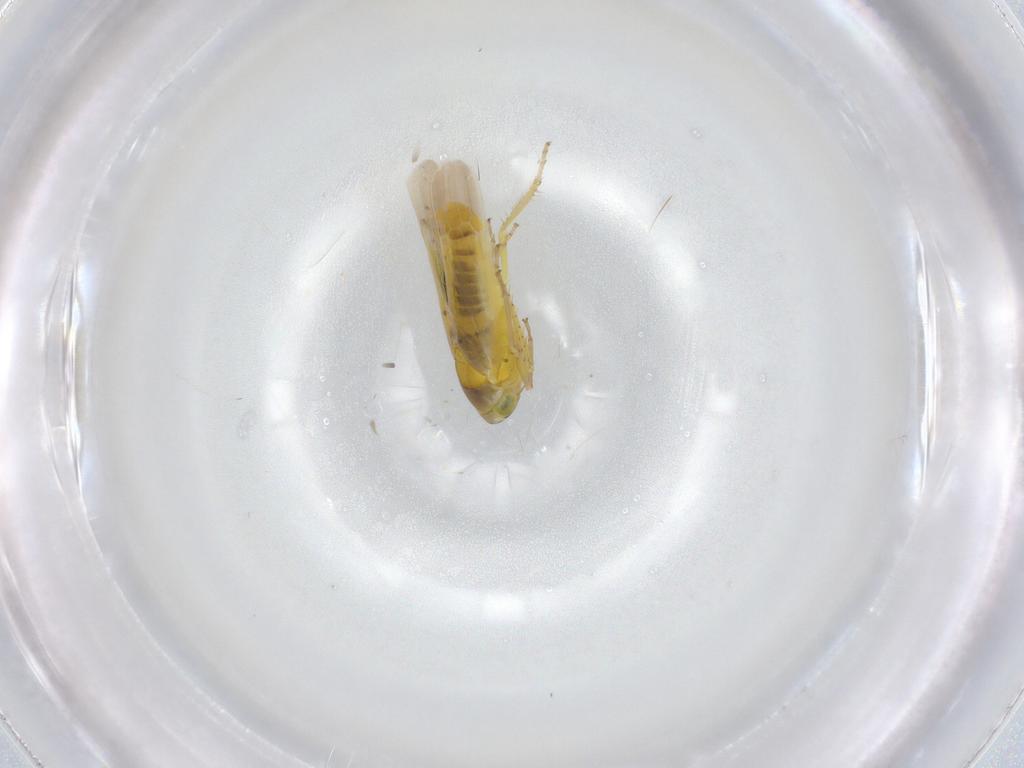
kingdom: Animalia
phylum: Arthropoda
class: Insecta
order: Hemiptera
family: Cicadellidae
